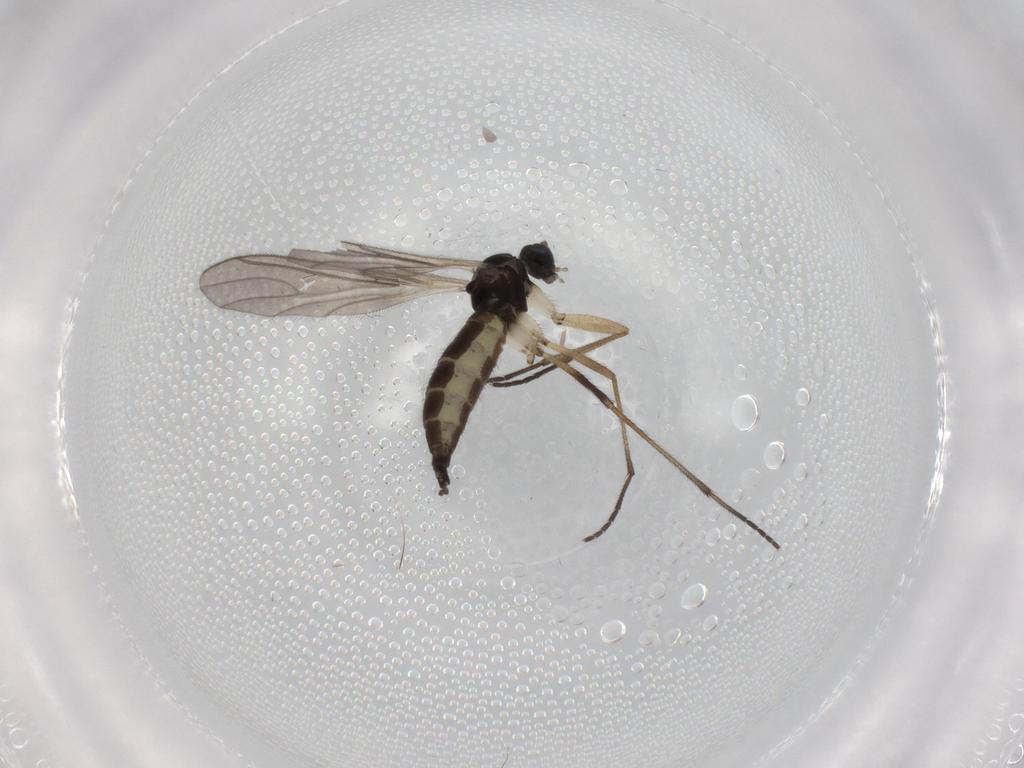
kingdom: Animalia
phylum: Arthropoda
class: Insecta
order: Diptera
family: Sciaridae
